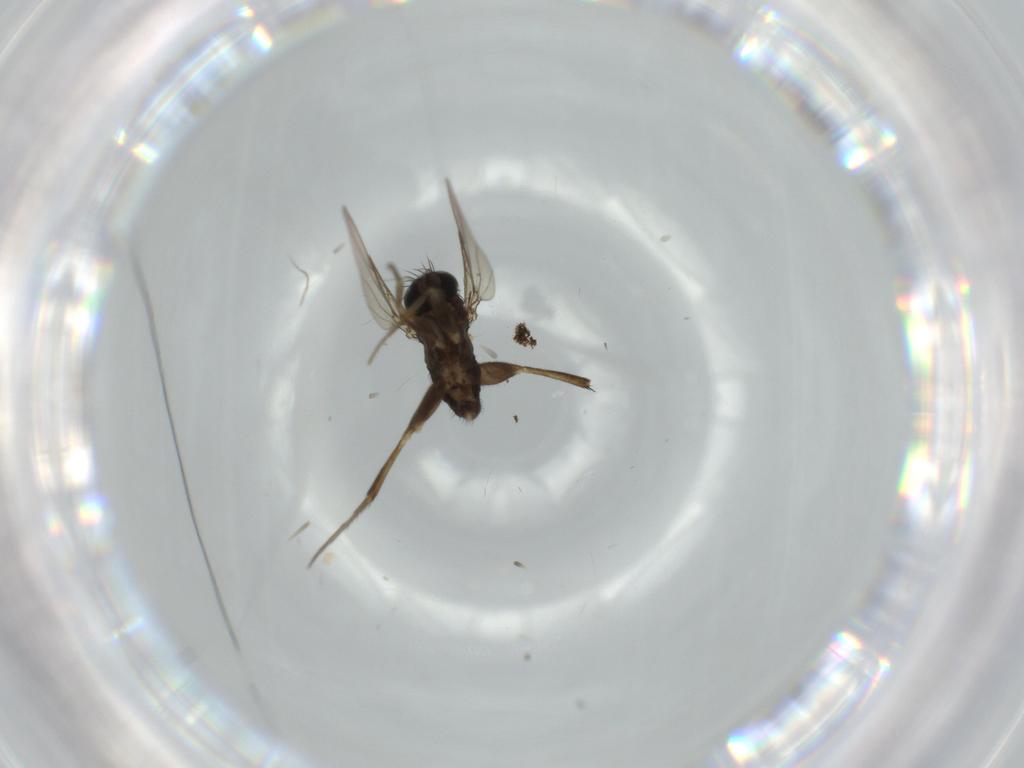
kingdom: Animalia
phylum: Arthropoda
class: Insecta
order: Diptera
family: Phoridae
